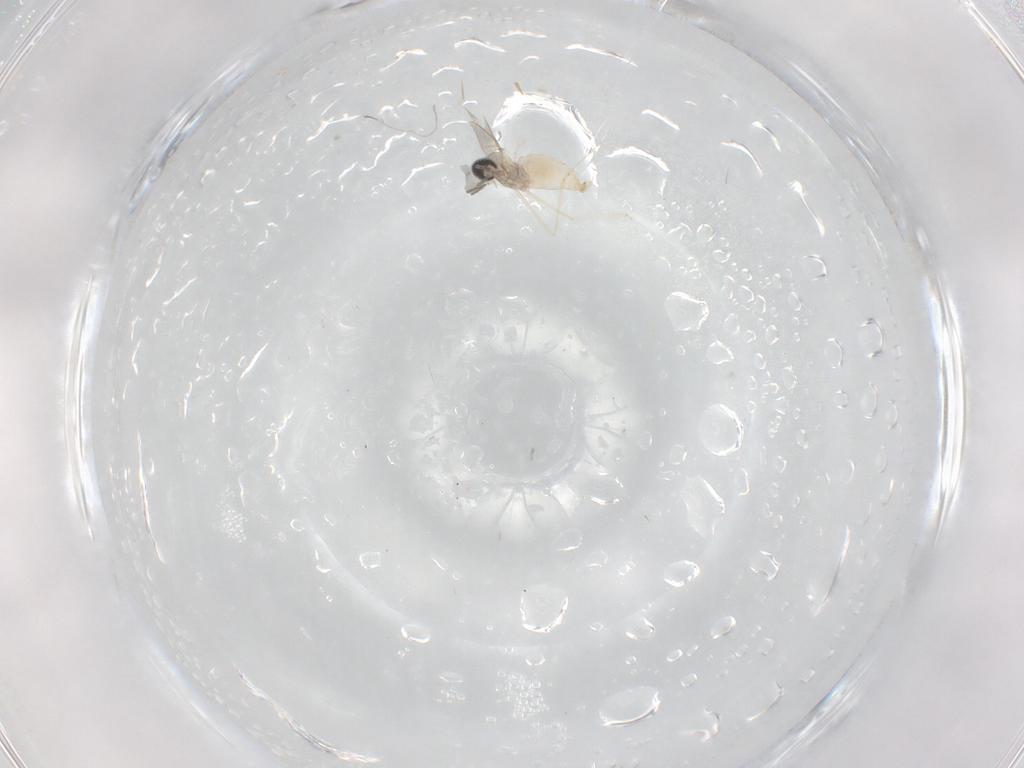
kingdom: Animalia
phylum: Arthropoda
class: Insecta
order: Diptera
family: Sciaridae
